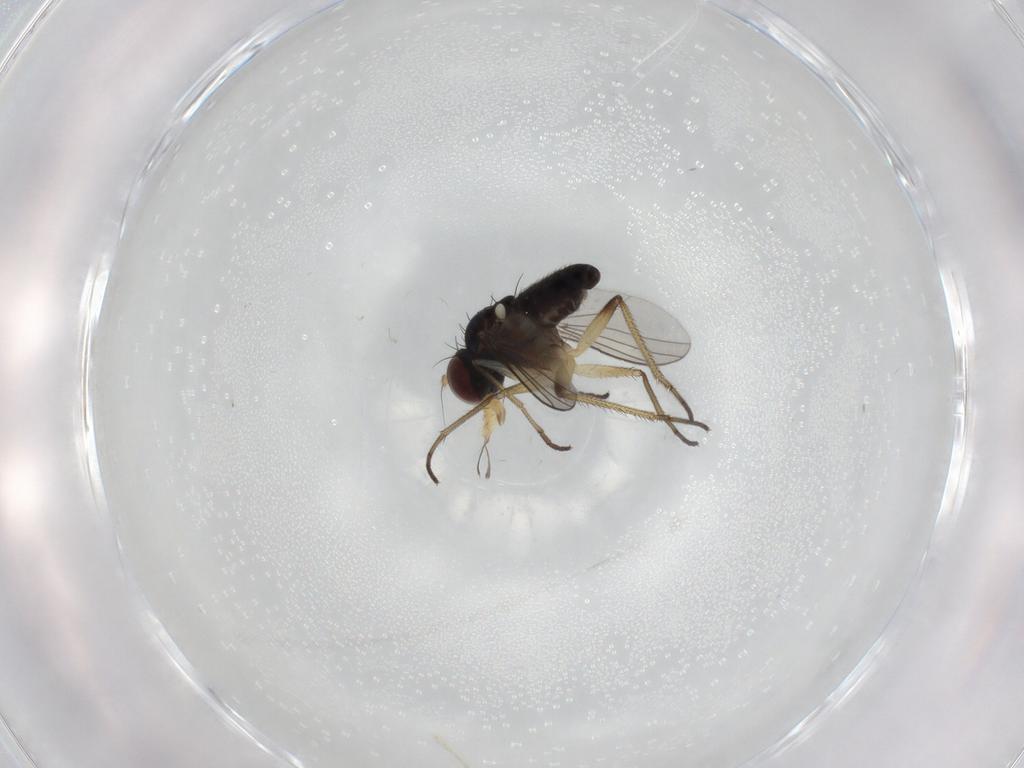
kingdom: Animalia
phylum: Arthropoda
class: Insecta
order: Diptera
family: Dolichopodidae
